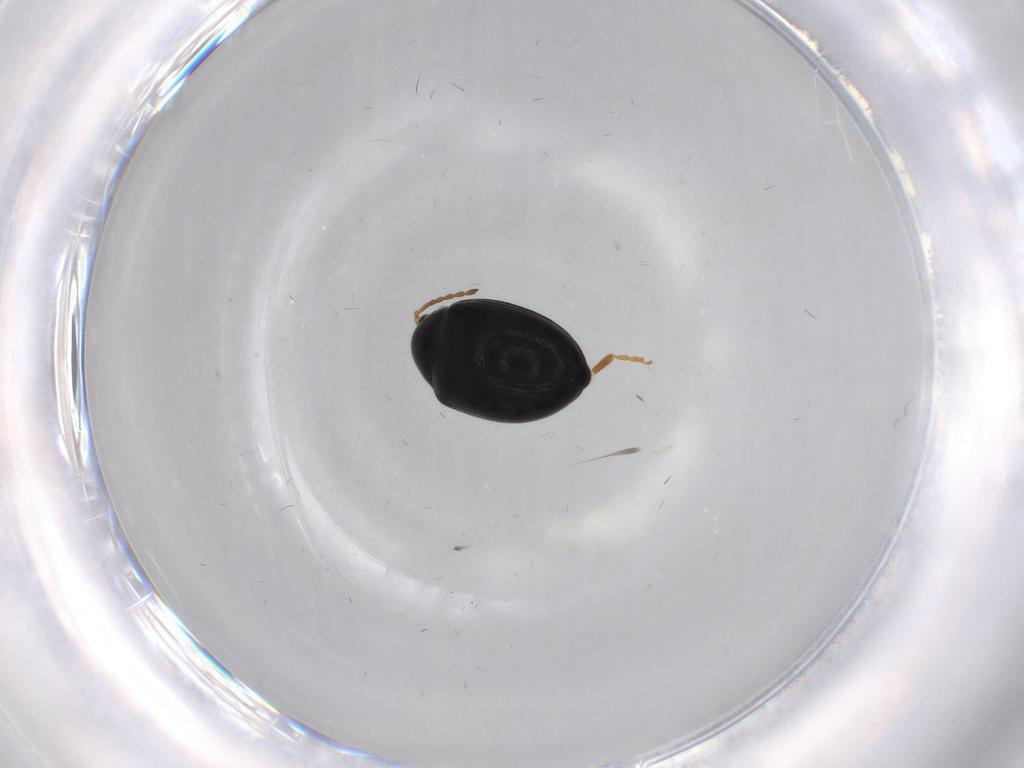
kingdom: Animalia
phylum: Arthropoda
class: Insecta
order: Coleoptera
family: Chrysomelidae
